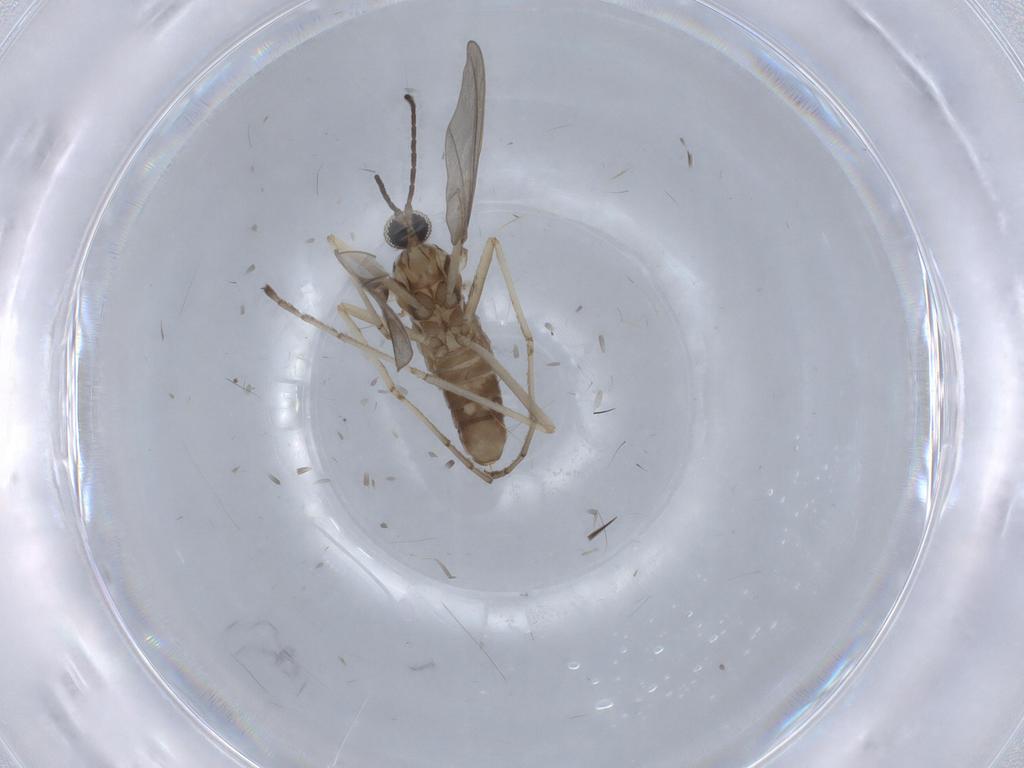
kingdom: Animalia
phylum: Arthropoda
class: Insecta
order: Diptera
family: Cecidomyiidae
